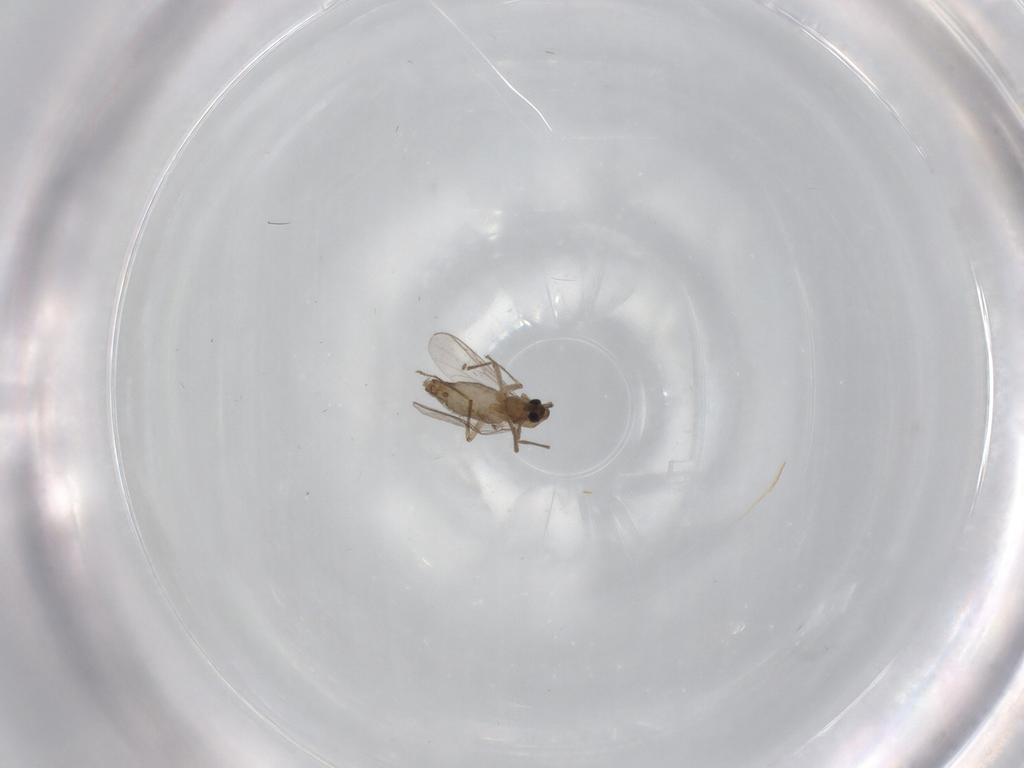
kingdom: Animalia
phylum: Arthropoda
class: Insecta
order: Diptera
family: Chironomidae
